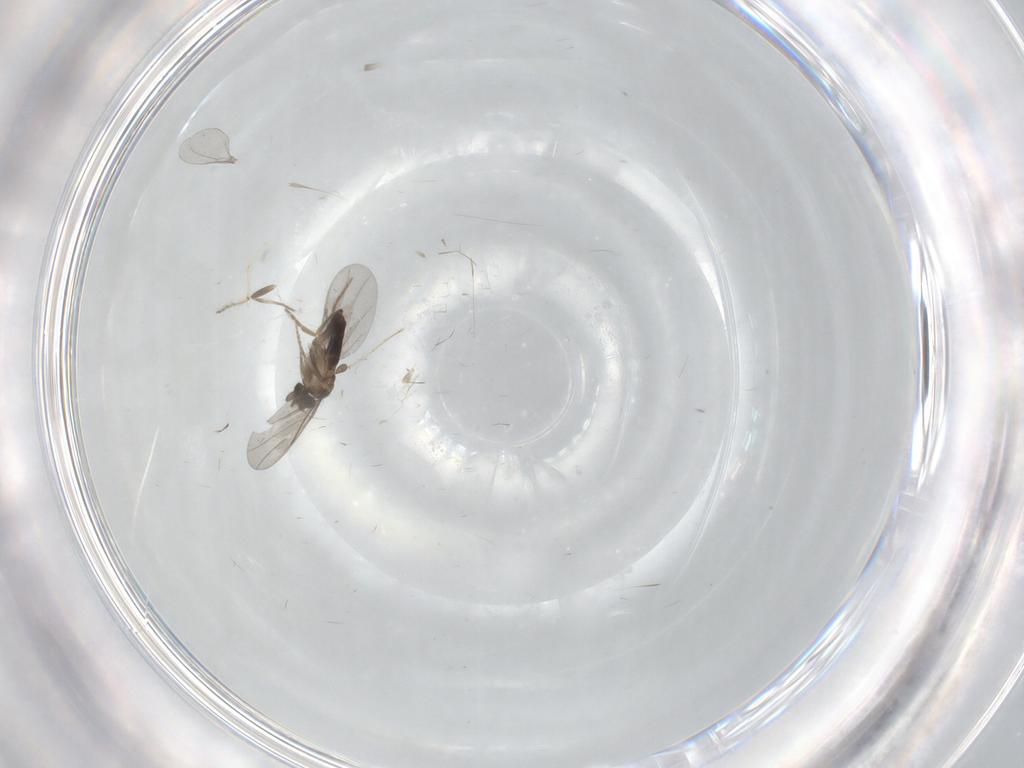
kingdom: Animalia
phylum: Arthropoda
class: Insecta
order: Diptera
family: Cecidomyiidae
